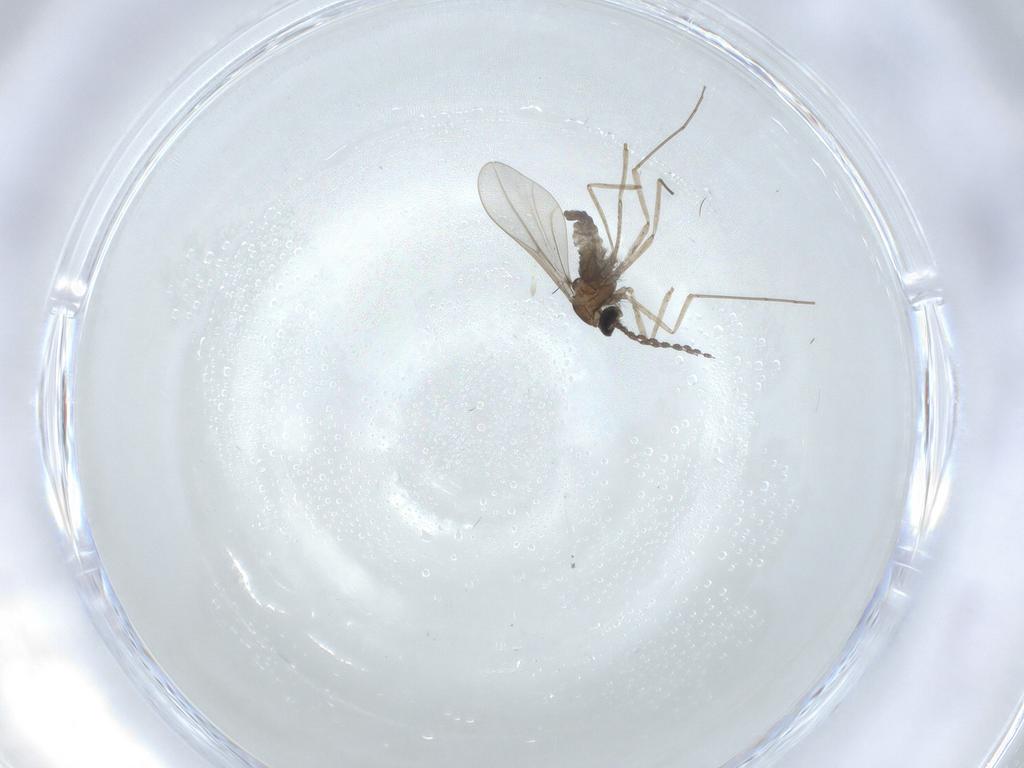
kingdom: Animalia
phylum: Arthropoda
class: Insecta
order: Diptera
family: Cecidomyiidae
